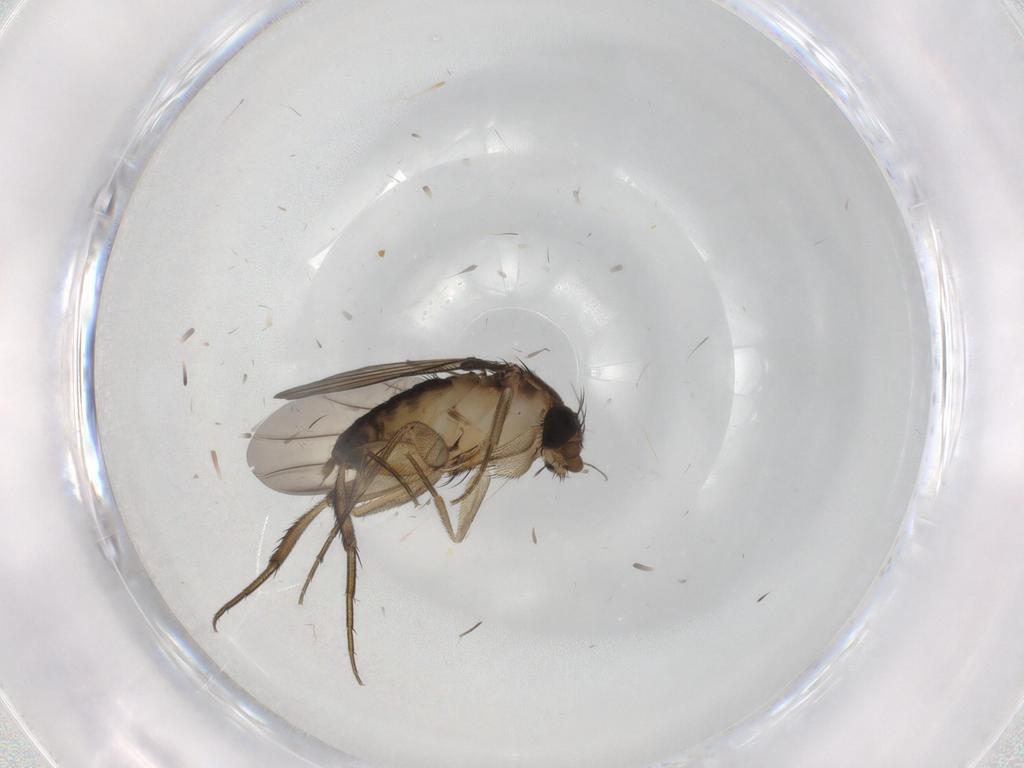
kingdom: Animalia
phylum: Arthropoda
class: Insecta
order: Diptera
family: Sciaridae
